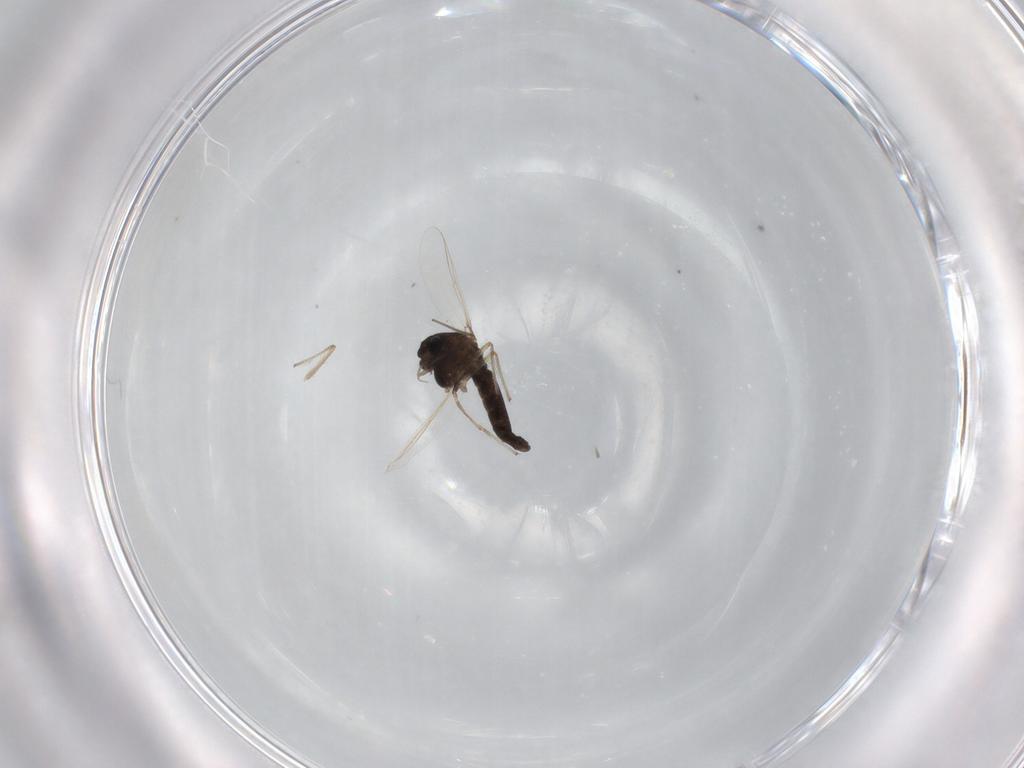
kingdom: Animalia
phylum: Arthropoda
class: Insecta
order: Diptera
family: Chironomidae
